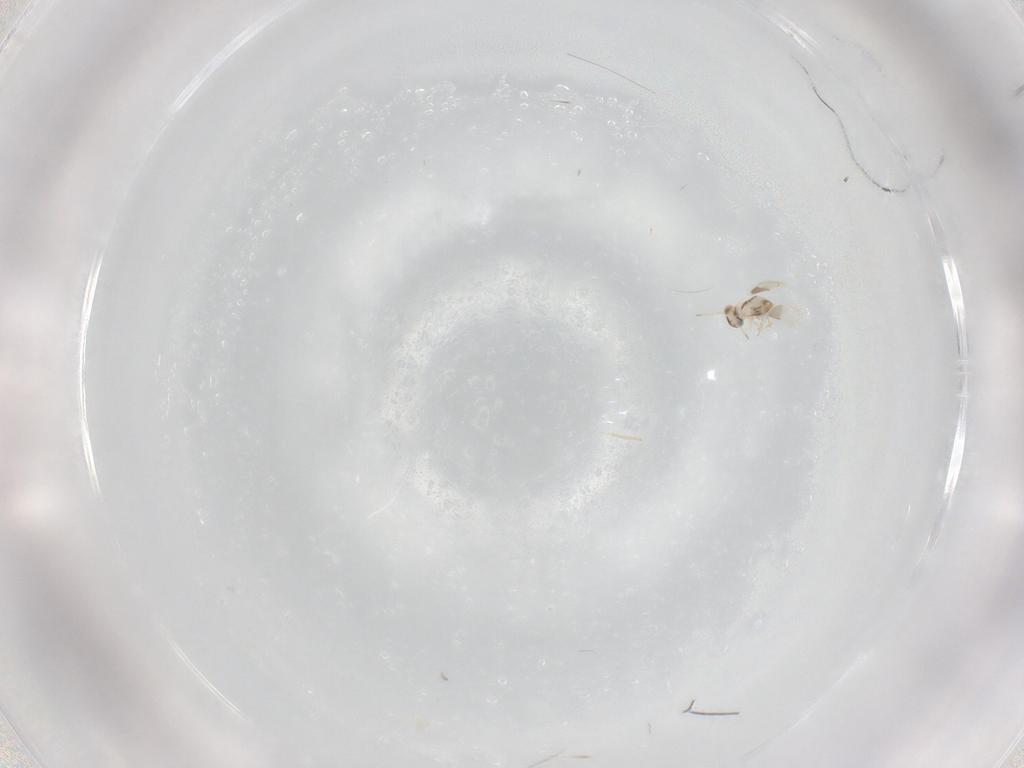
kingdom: Animalia
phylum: Arthropoda
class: Insecta
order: Hymenoptera
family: Aphelinidae
